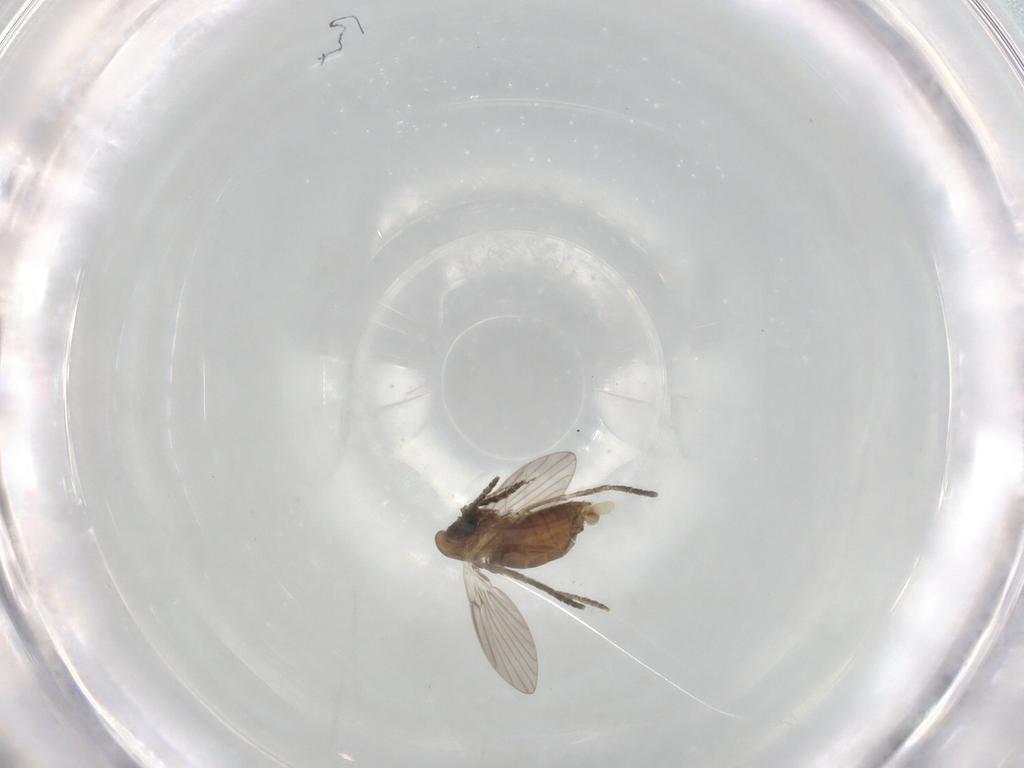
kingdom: Animalia
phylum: Arthropoda
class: Insecta
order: Diptera
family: Psychodidae
